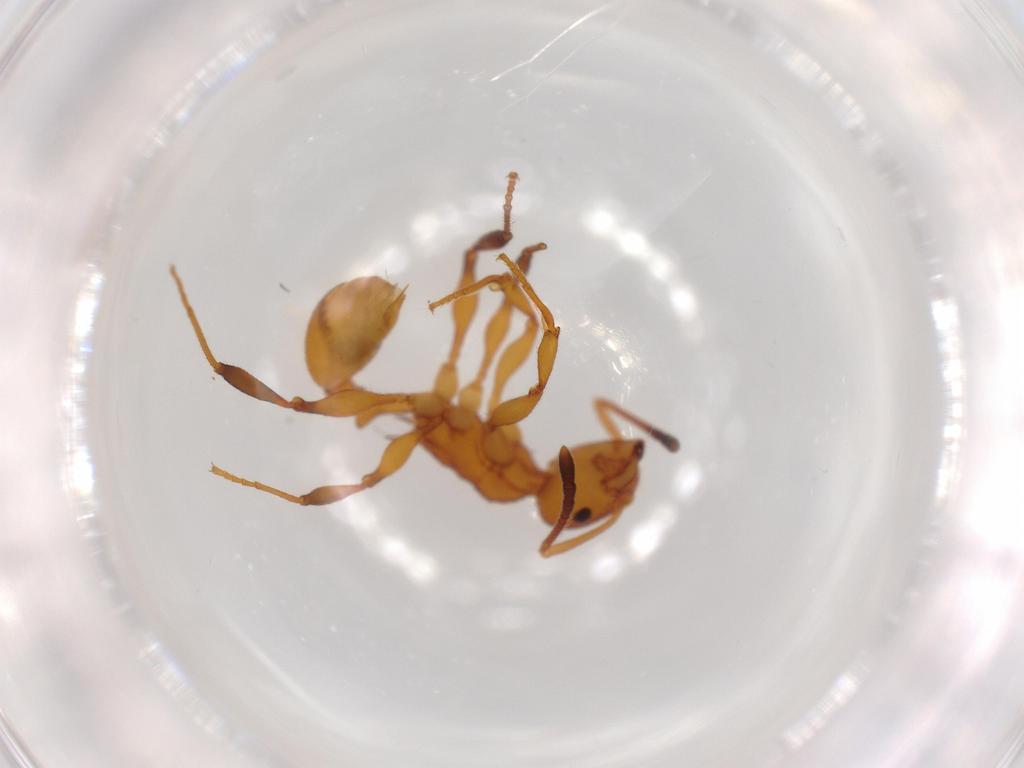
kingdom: Animalia
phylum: Arthropoda
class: Insecta
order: Hymenoptera
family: Formicidae
